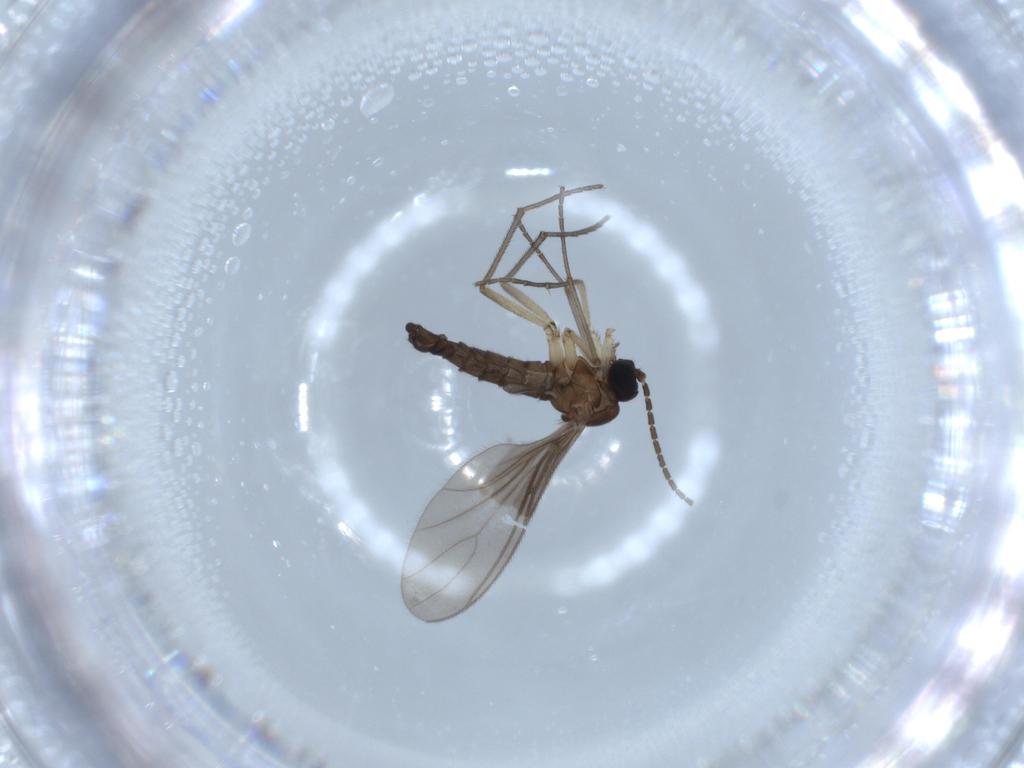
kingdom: Animalia
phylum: Arthropoda
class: Insecta
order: Diptera
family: Sciaridae
